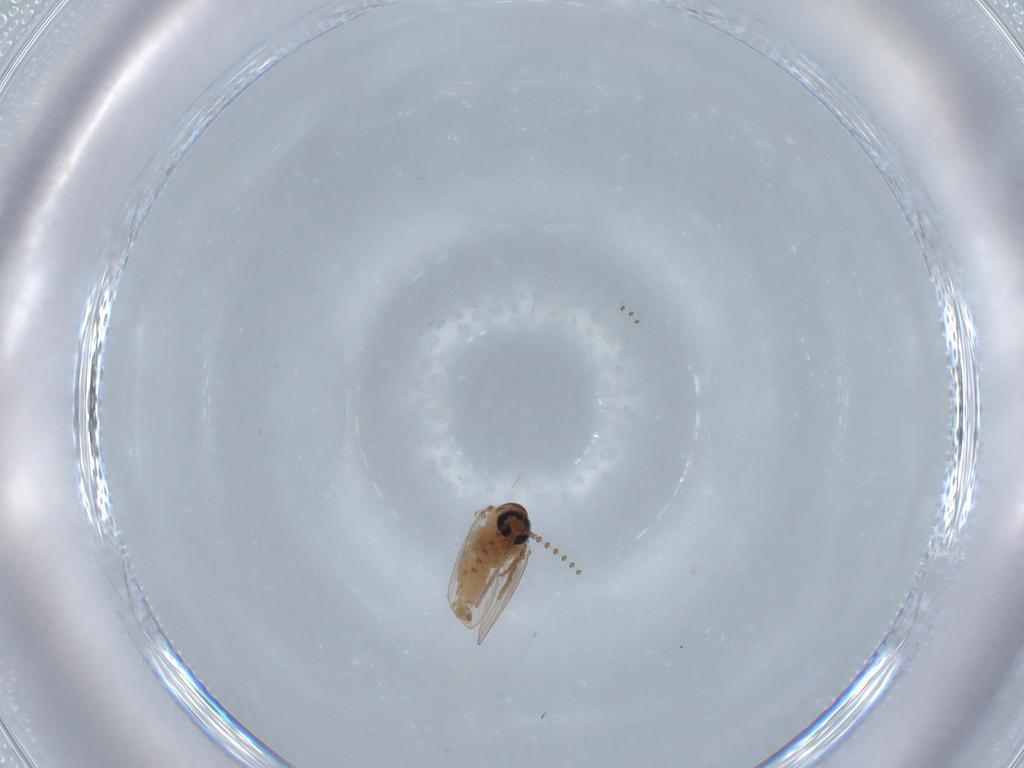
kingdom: Animalia
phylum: Arthropoda
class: Insecta
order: Diptera
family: Psychodidae
